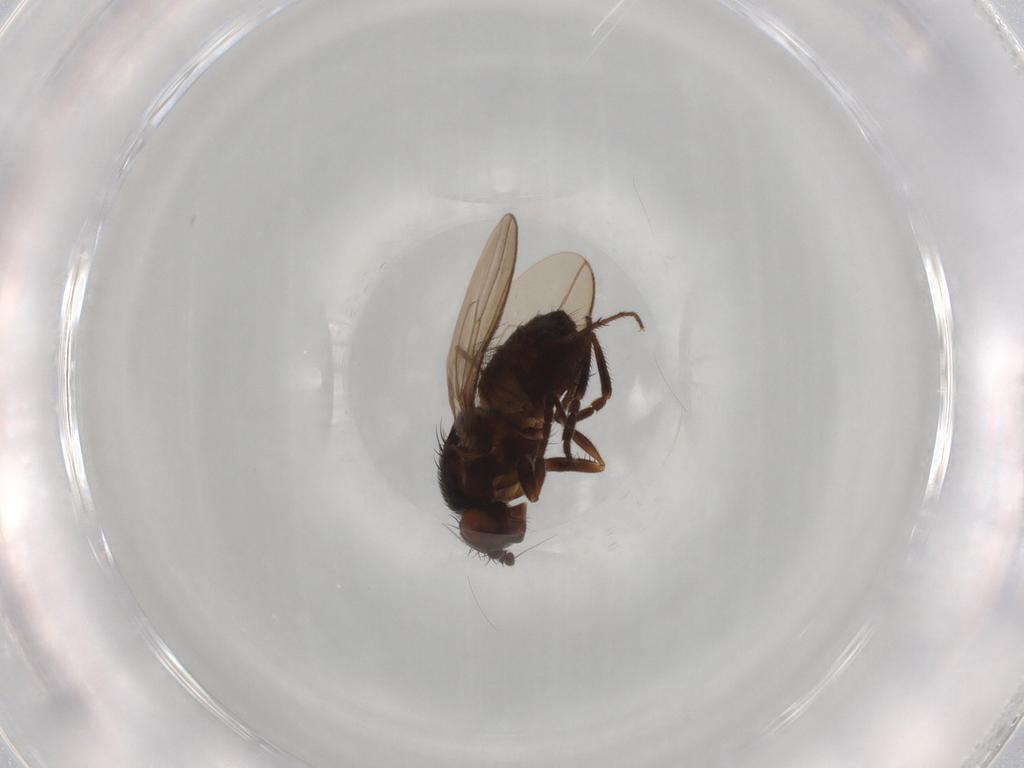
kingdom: Animalia
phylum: Arthropoda
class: Insecta
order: Diptera
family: Sphaeroceridae
